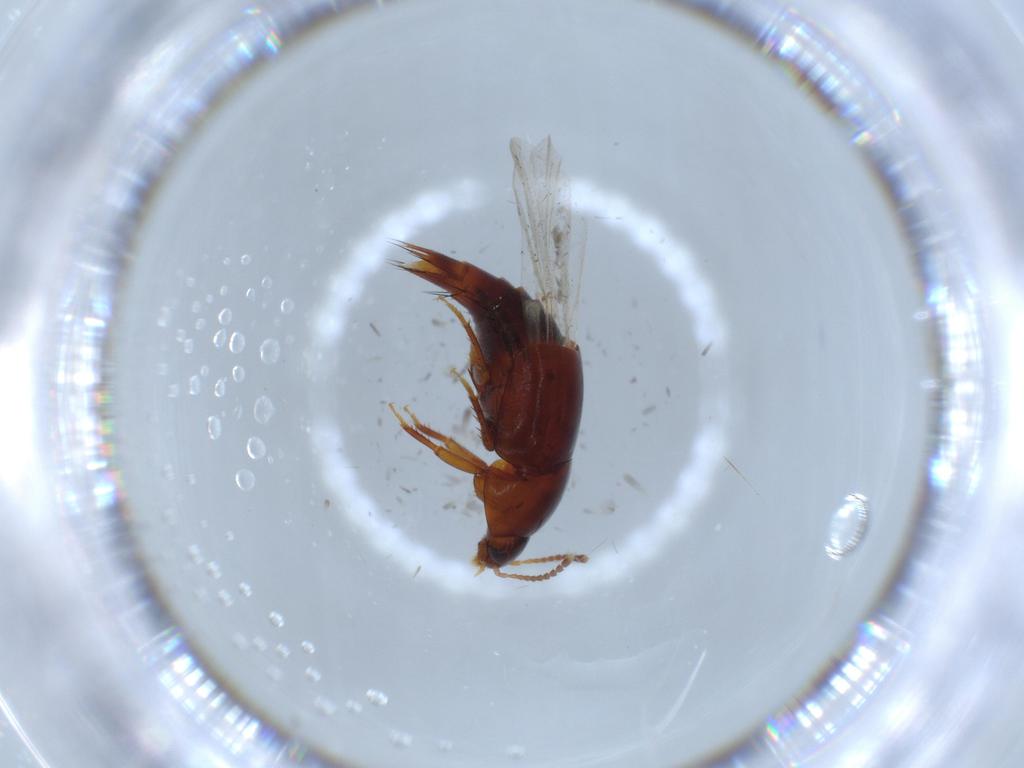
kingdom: Animalia
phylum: Arthropoda
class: Insecta
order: Coleoptera
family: Staphylinidae
